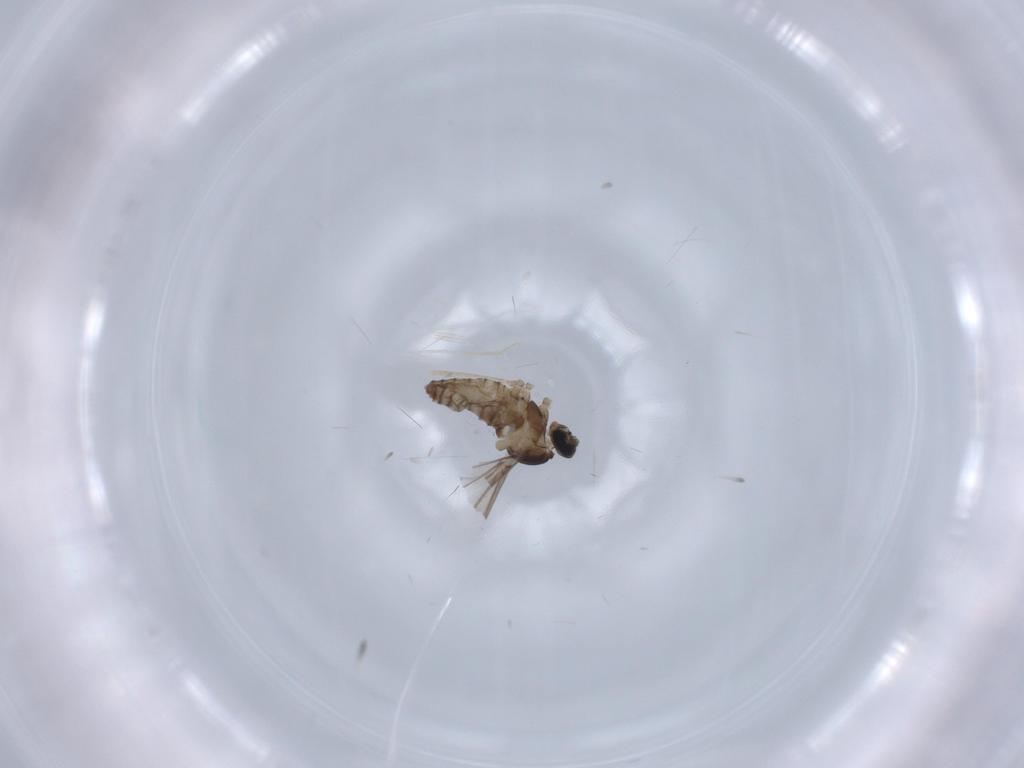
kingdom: Animalia
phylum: Arthropoda
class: Insecta
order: Diptera
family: Cecidomyiidae
